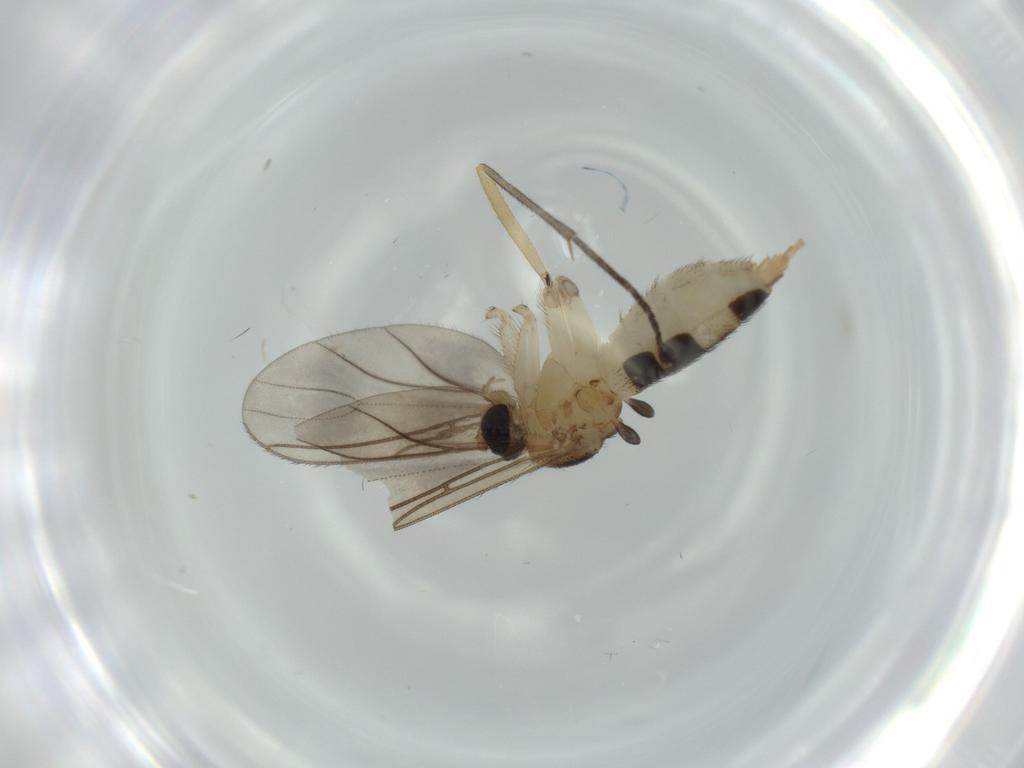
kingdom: Animalia
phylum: Arthropoda
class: Insecta
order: Diptera
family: Sciaridae
